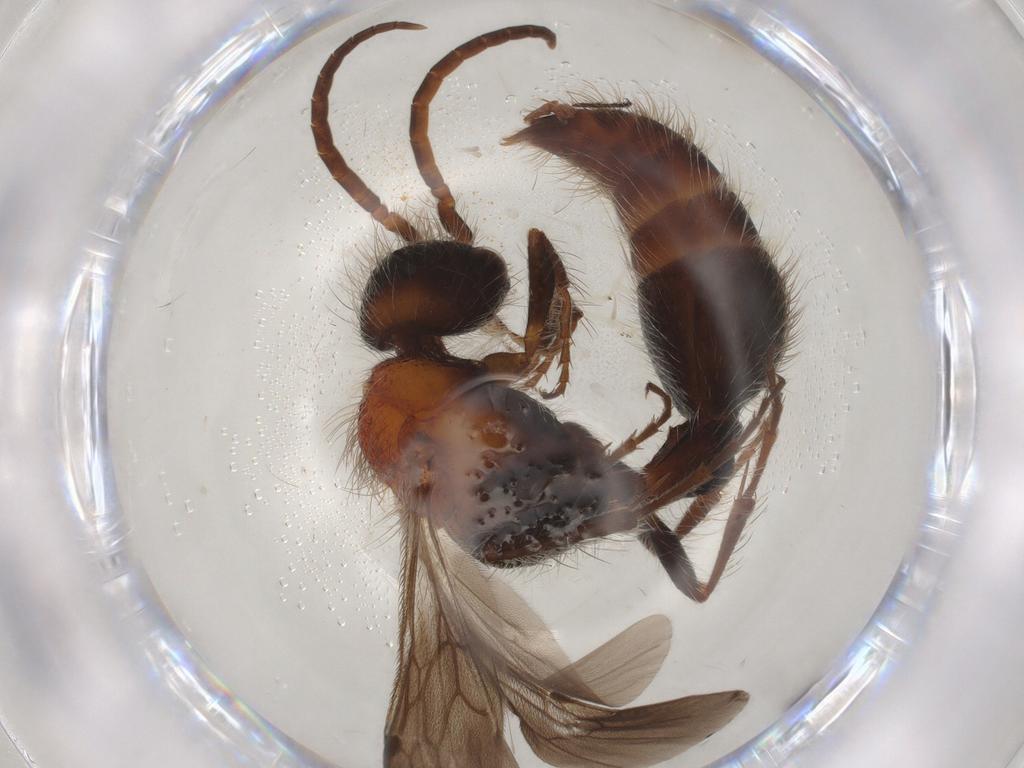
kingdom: Animalia
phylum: Arthropoda
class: Insecta
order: Hymenoptera
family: Mutillidae
